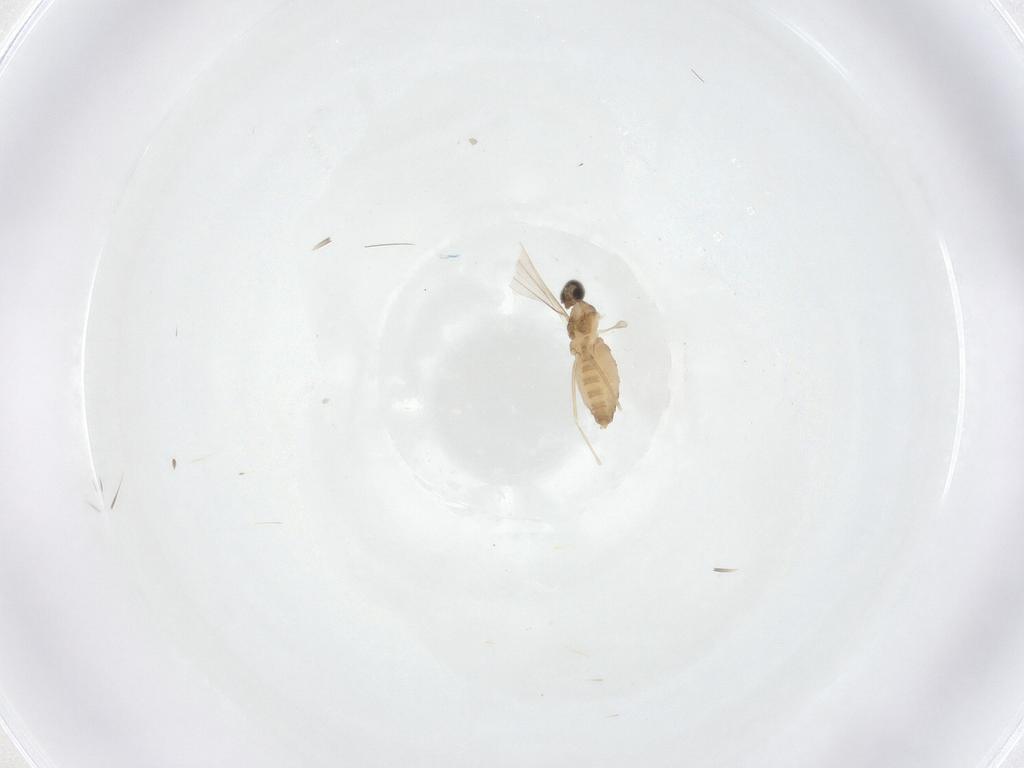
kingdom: Animalia
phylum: Arthropoda
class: Insecta
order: Diptera
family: Cecidomyiidae
